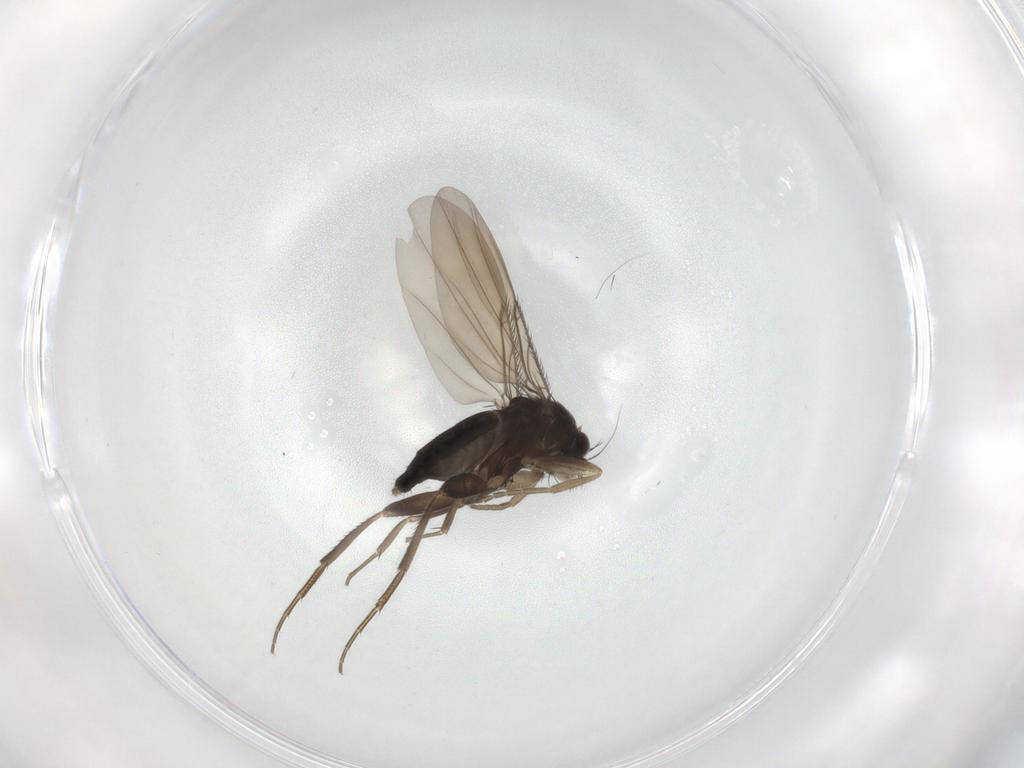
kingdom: Animalia
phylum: Arthropoda
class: Insecta
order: Diptera
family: Phoridae
